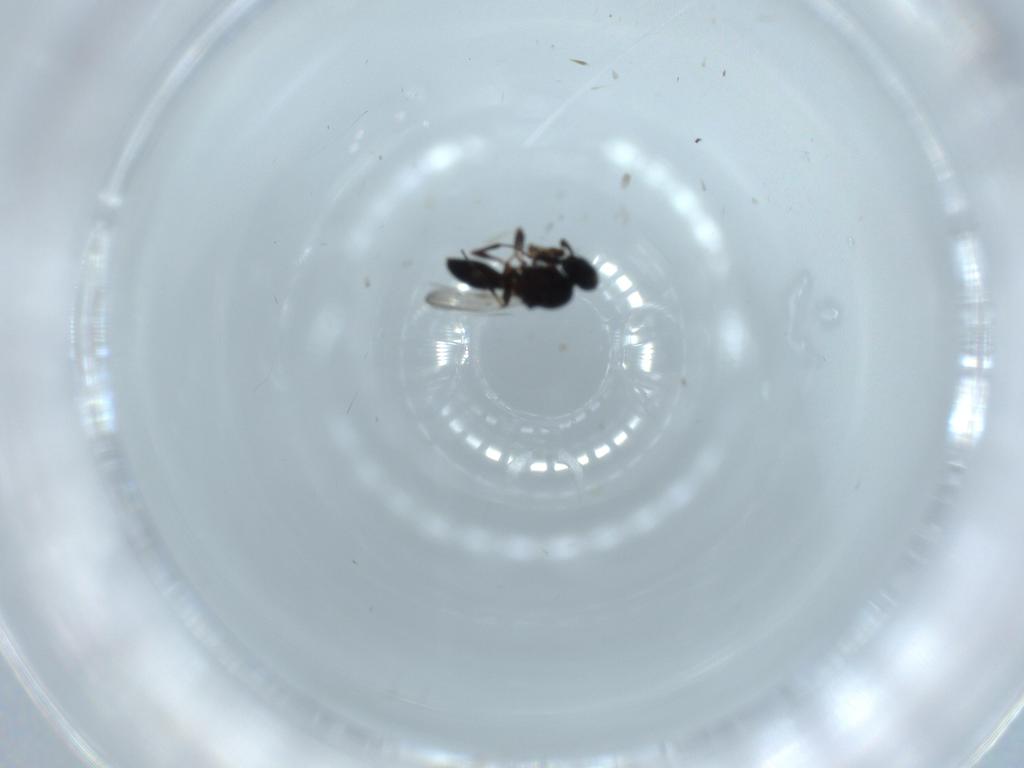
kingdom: Animalia
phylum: Arthropoda
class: Insecta
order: Hymenoptera
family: Platygastridae
